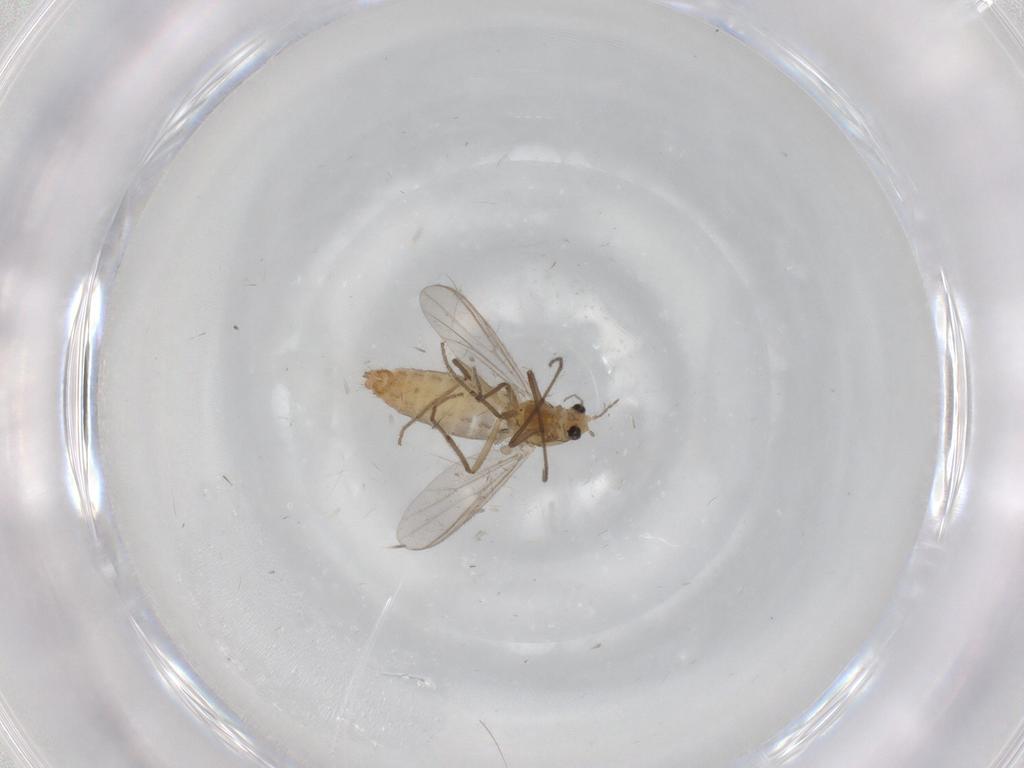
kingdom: Animalia
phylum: Arthropoda
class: Insecta
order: Diptera
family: Chironomidae
